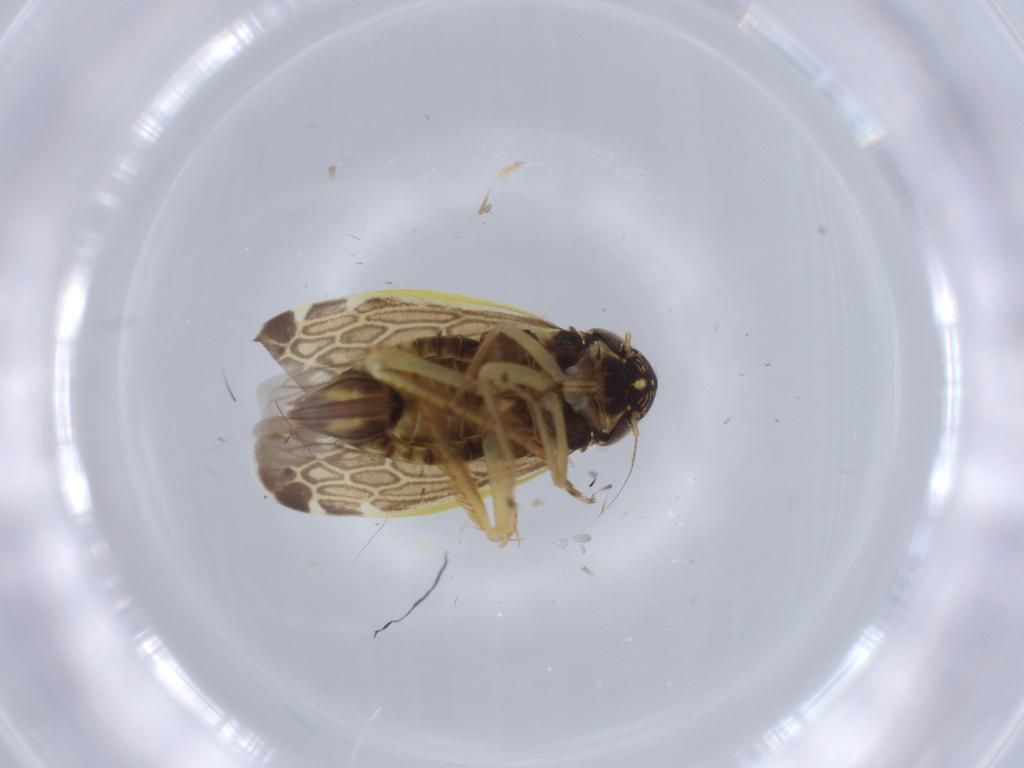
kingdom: Animalia
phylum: Arthropoda
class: Insecta
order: Hemiptera
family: Cicadellidae
